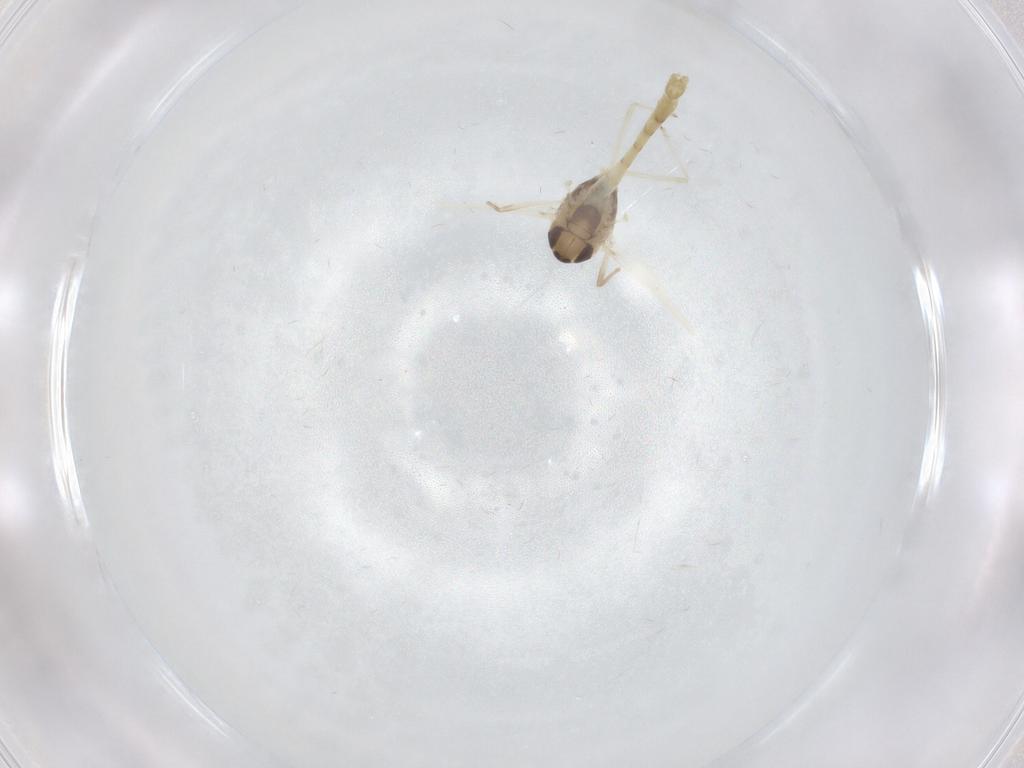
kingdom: Animalia
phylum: Arthropoda
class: Insecta
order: Diptera
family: Chironomidae
